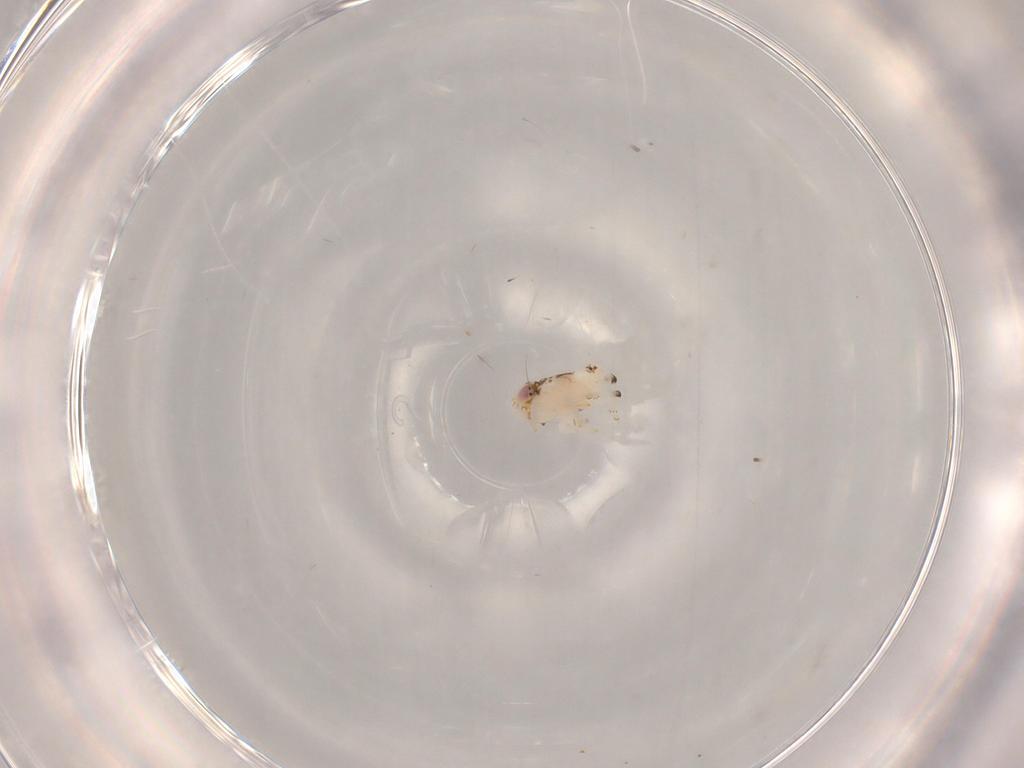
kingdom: Animalia
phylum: Arthropoda
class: Insecta
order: Hemiptera
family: Nogodinidae
